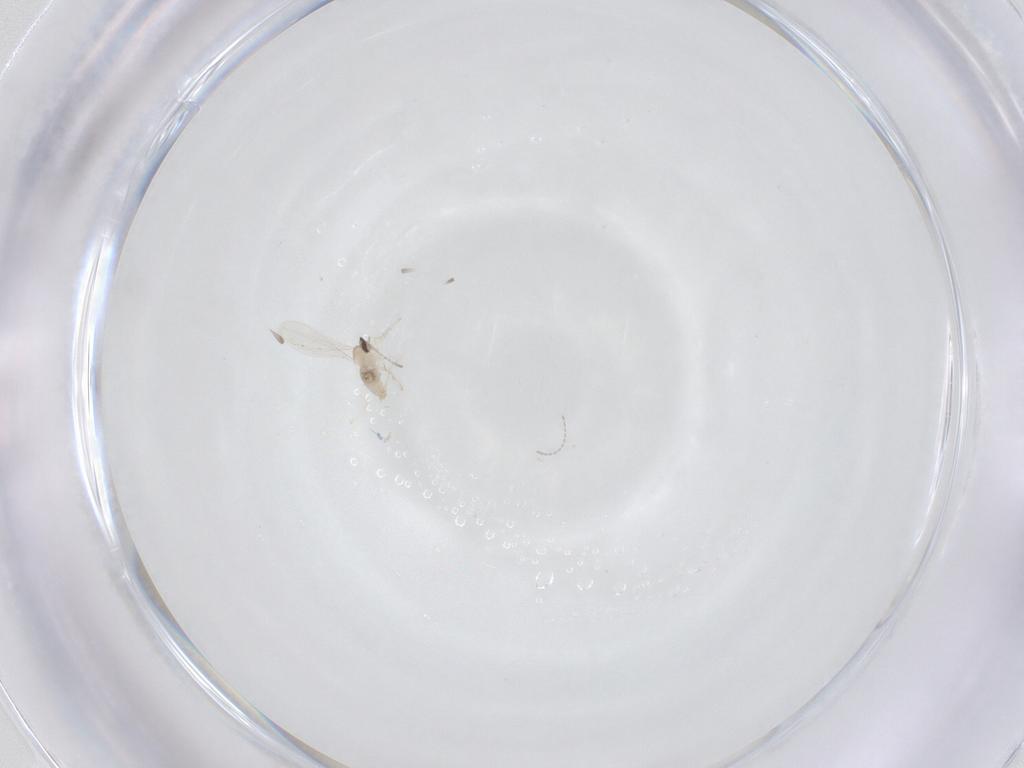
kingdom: Animalia
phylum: Arthropoda
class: Insecta
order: Diptera
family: Cecidomyiidae
